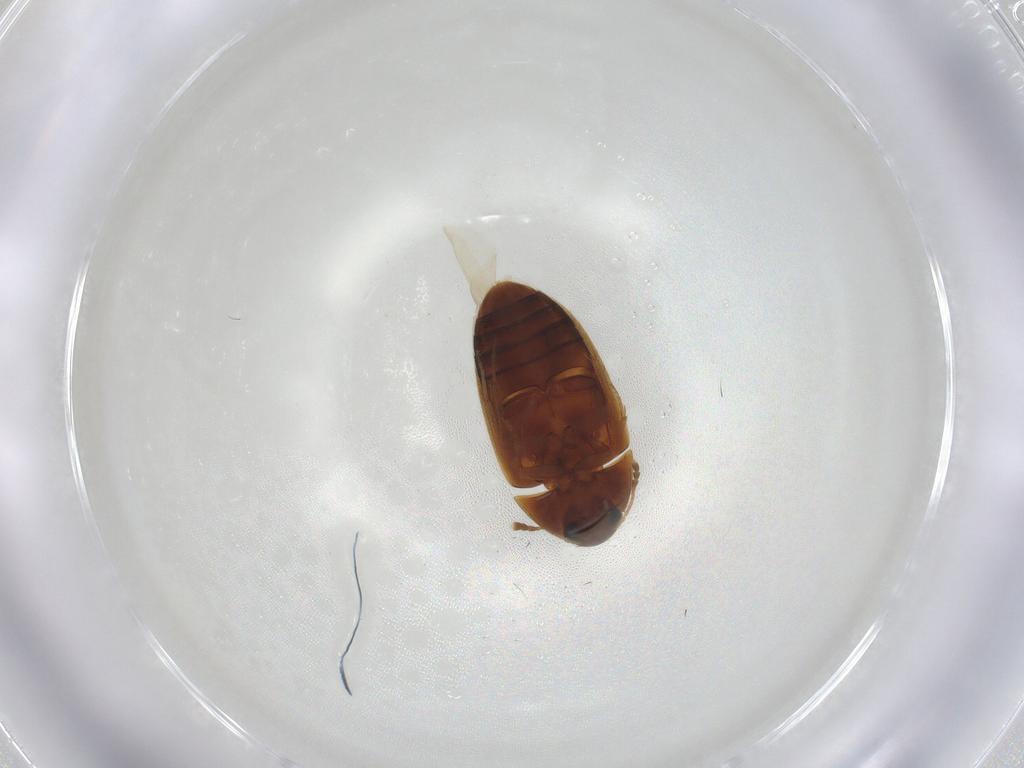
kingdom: Animalia
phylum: Arthropoda
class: Insecta
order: Coleoptera
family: Mycetophagidae
